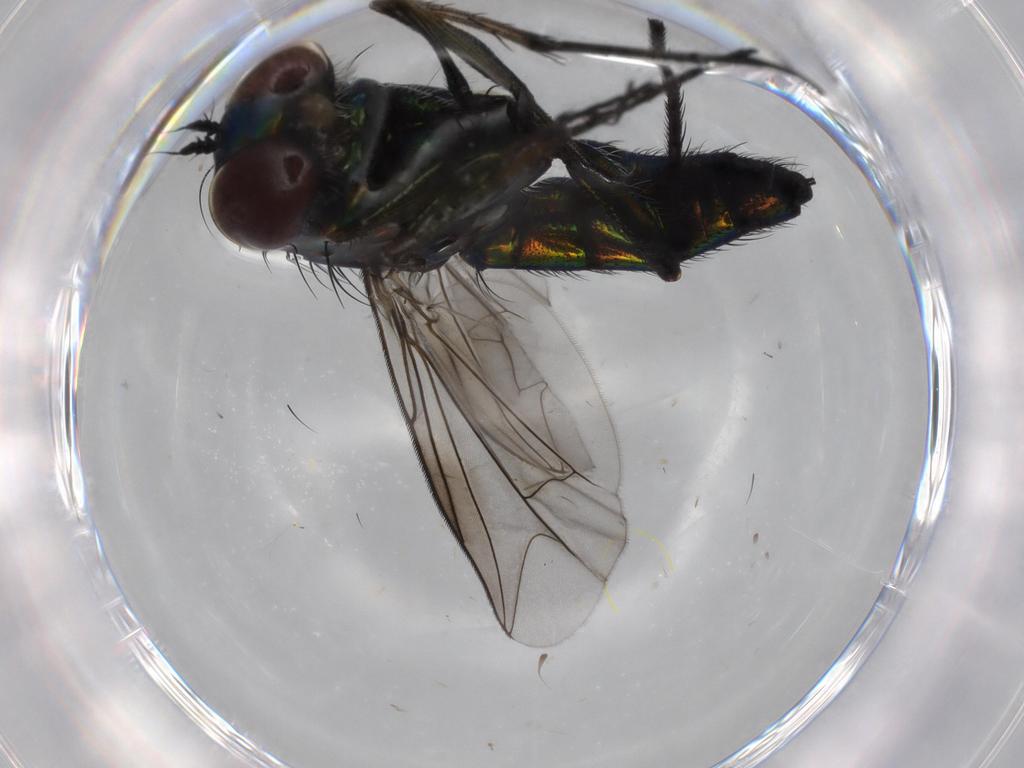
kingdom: Animalia
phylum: Arthropoda
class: Insecta
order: Diptera
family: Dolichopodidae
